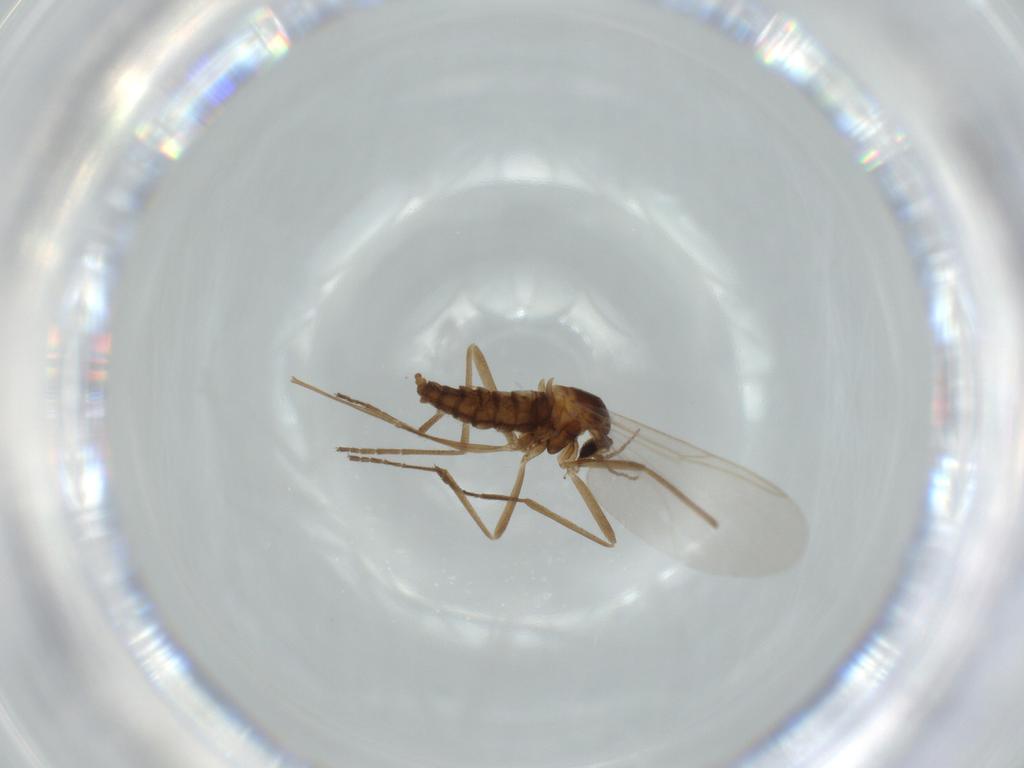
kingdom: Animalia
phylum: Arthropoda
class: Insecta
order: Diptera
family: Cecidomyiidae
